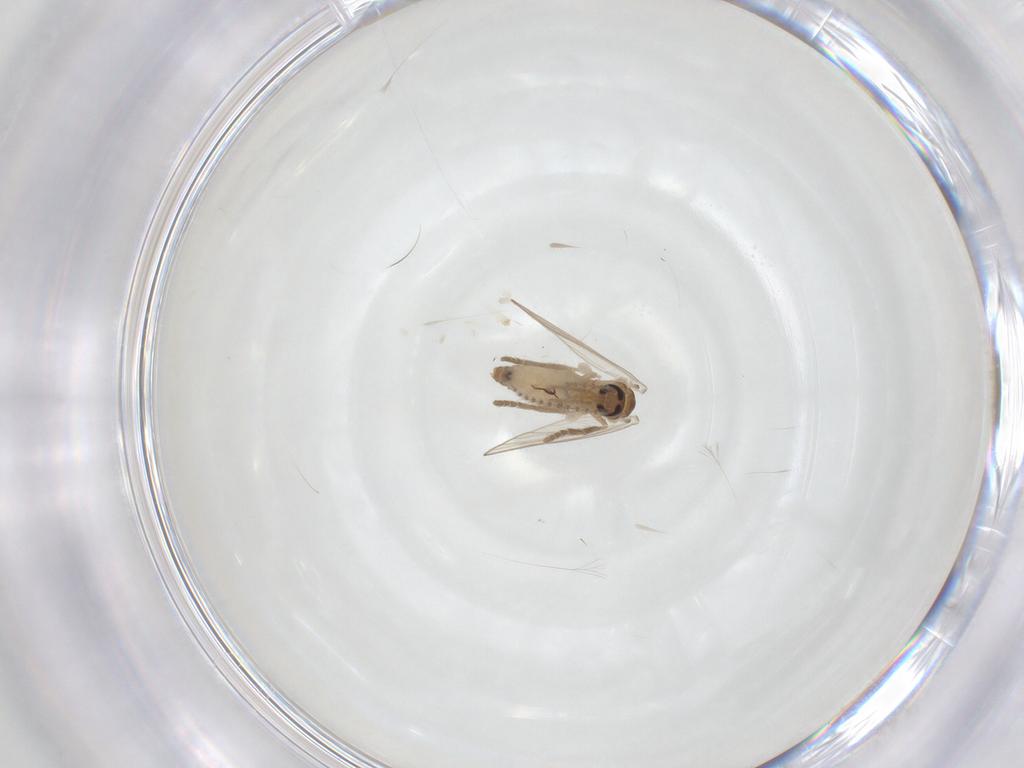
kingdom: Animalia
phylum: Arthropoda
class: Insecta
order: Diptera
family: Psychodidae
